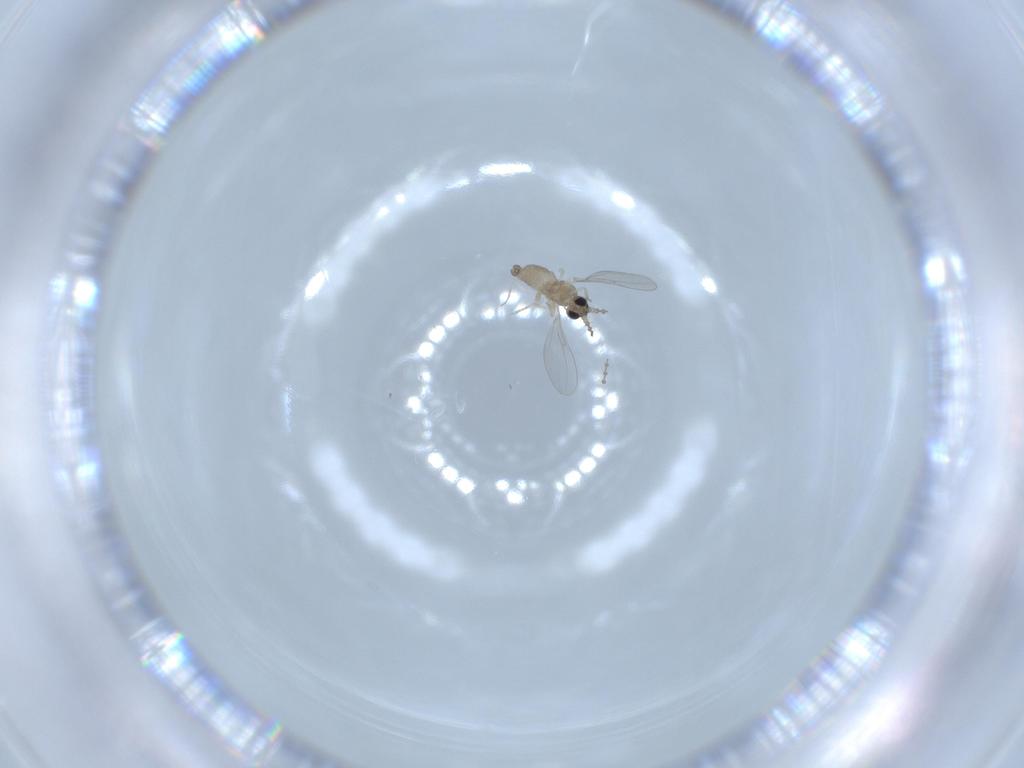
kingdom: Animalia
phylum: Arthropoda
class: Insecta
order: Diptera
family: Cecidomyiidae
